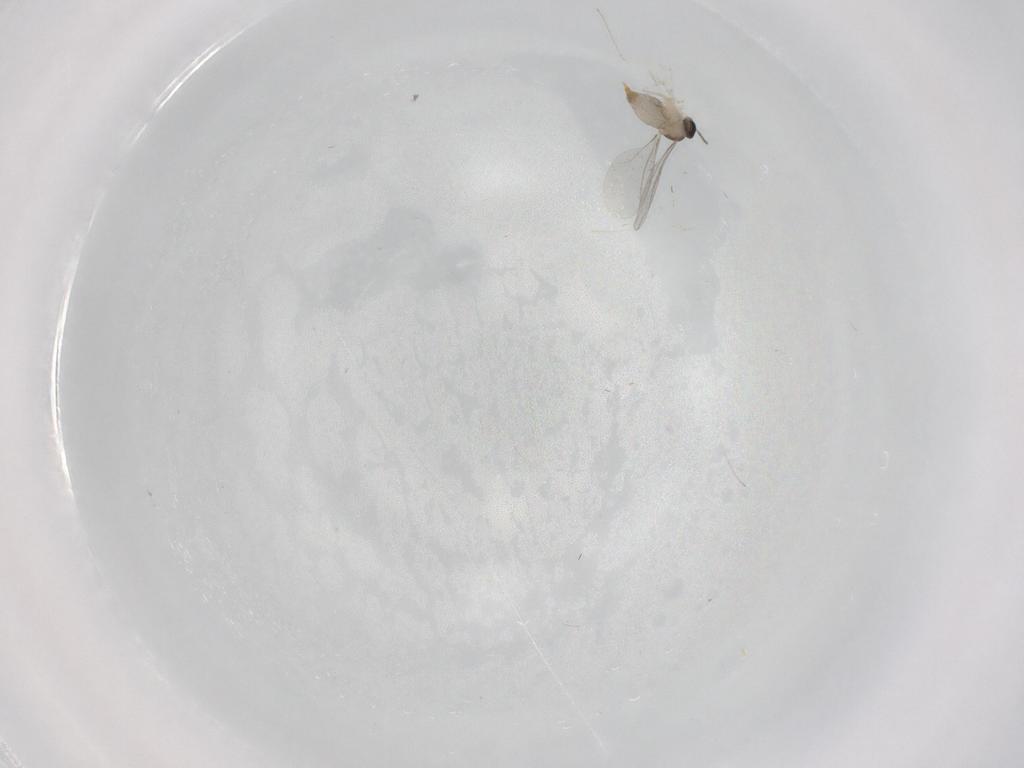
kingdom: Animalia
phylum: Arthropoda
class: Insecta
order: Diptera
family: Cecidomyiidae
